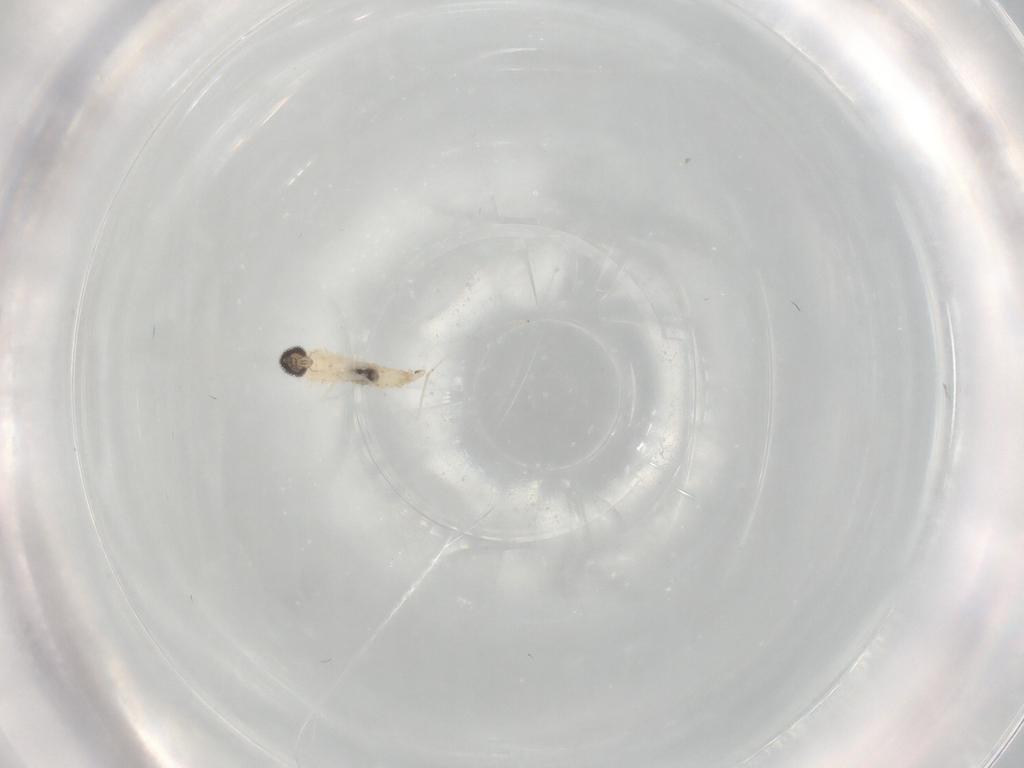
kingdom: Animalia
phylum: Arthropoda
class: Insecta
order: Diptera
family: Cecidomyiidae
